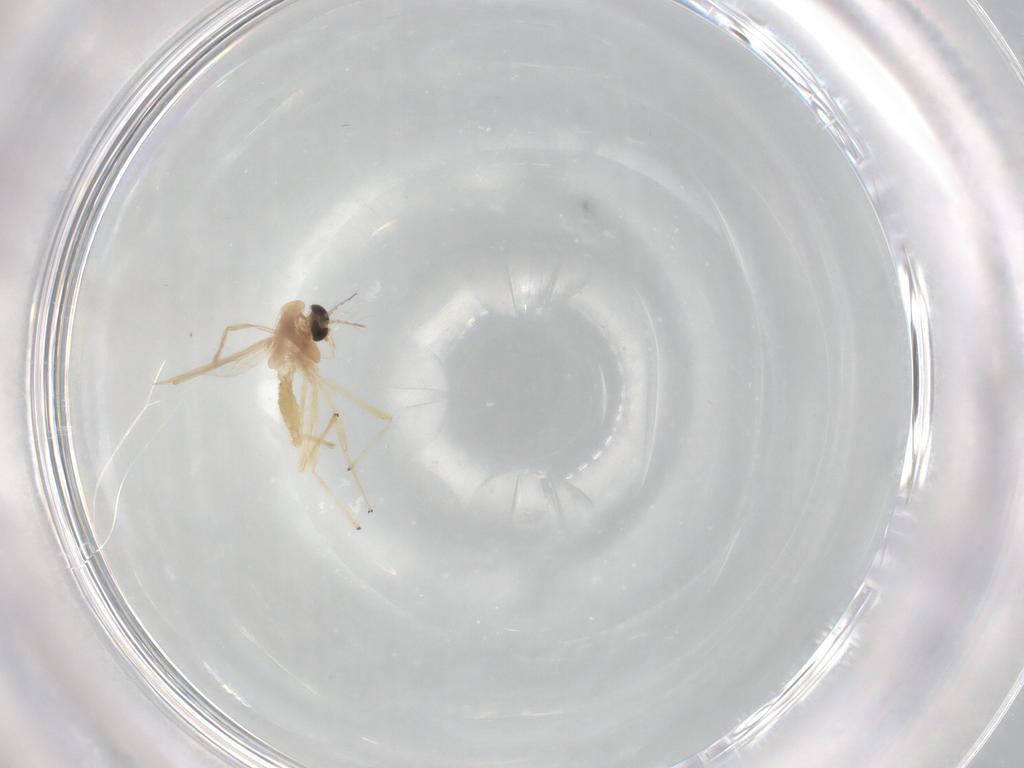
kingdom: Animalia
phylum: Arthropoda
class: Insecta
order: Diptera
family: Chironomidae
